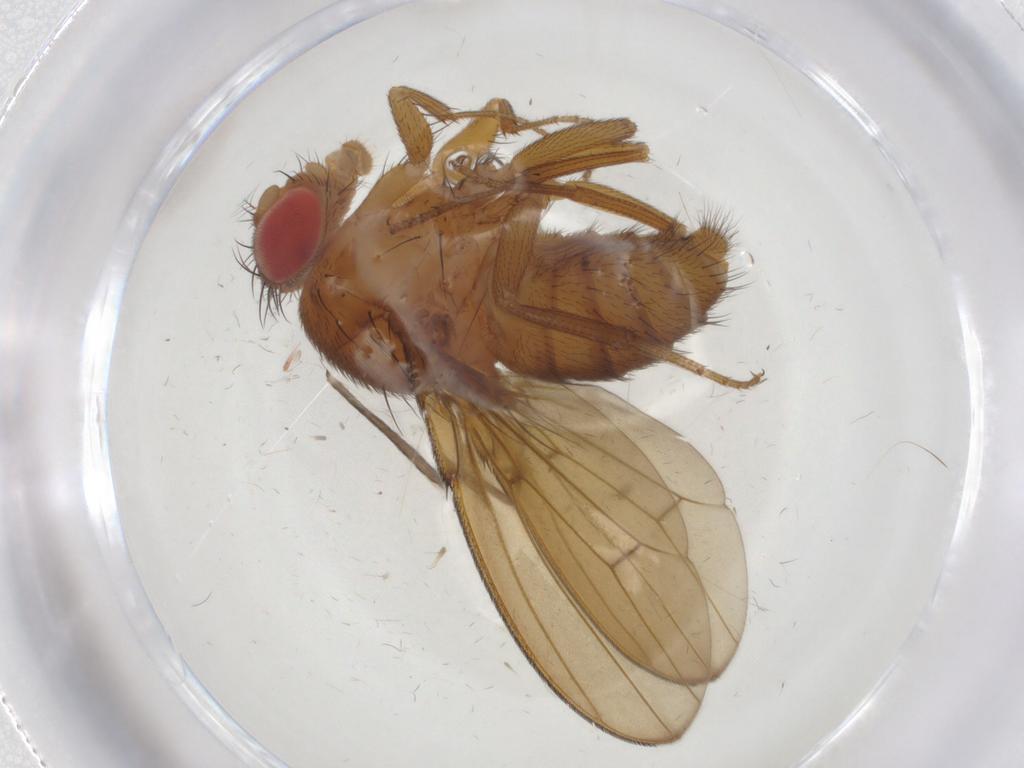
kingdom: Animalia
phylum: Arthropoda
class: Insecta
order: Diptera
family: Drosophilidae
